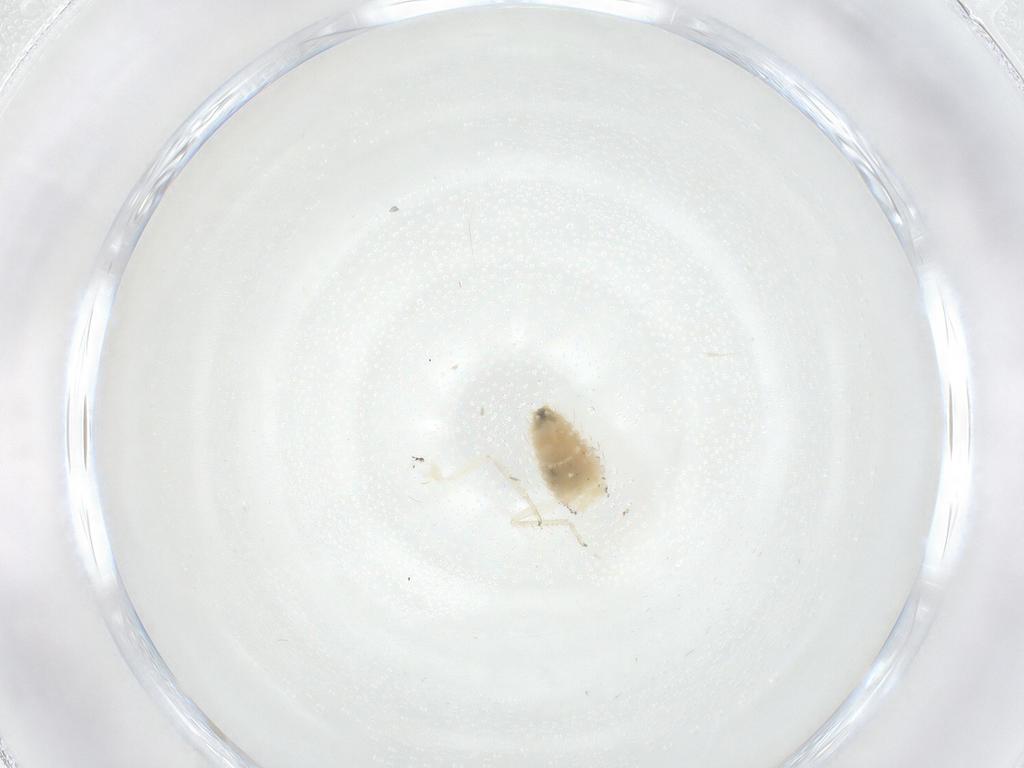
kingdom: Animalia
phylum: Arthropoda
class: Insecta
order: Diptera
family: Cecidomyiidae
